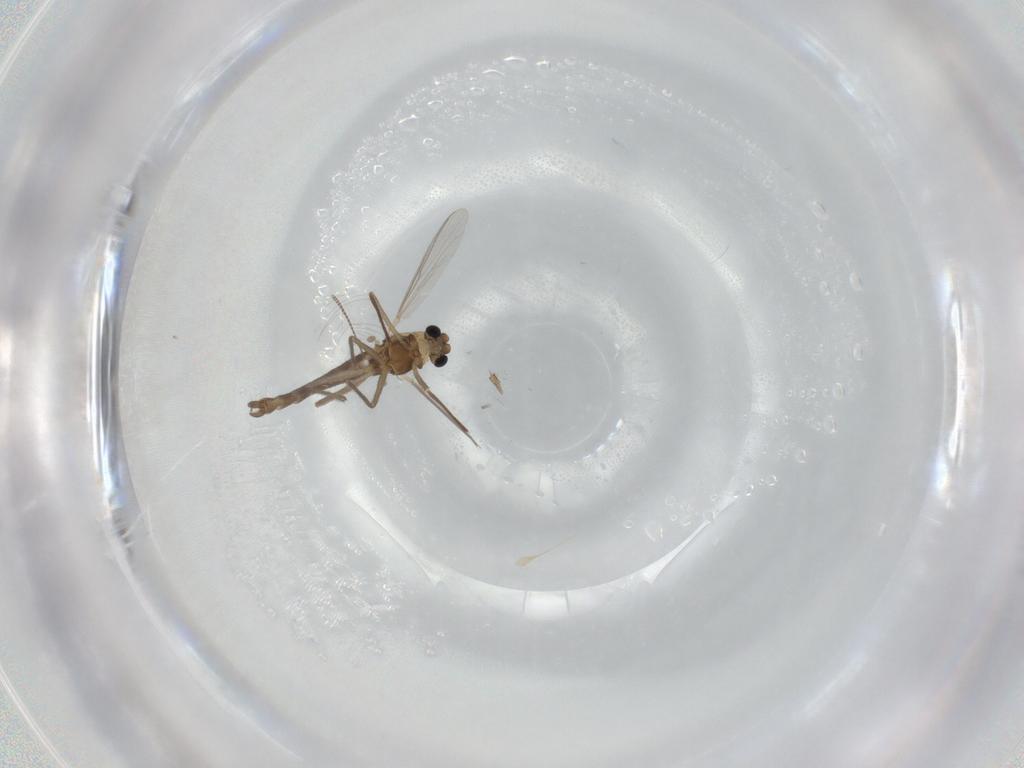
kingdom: Animalia
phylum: Arthropoda
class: Insecta
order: Diptera
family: Chironomidae
